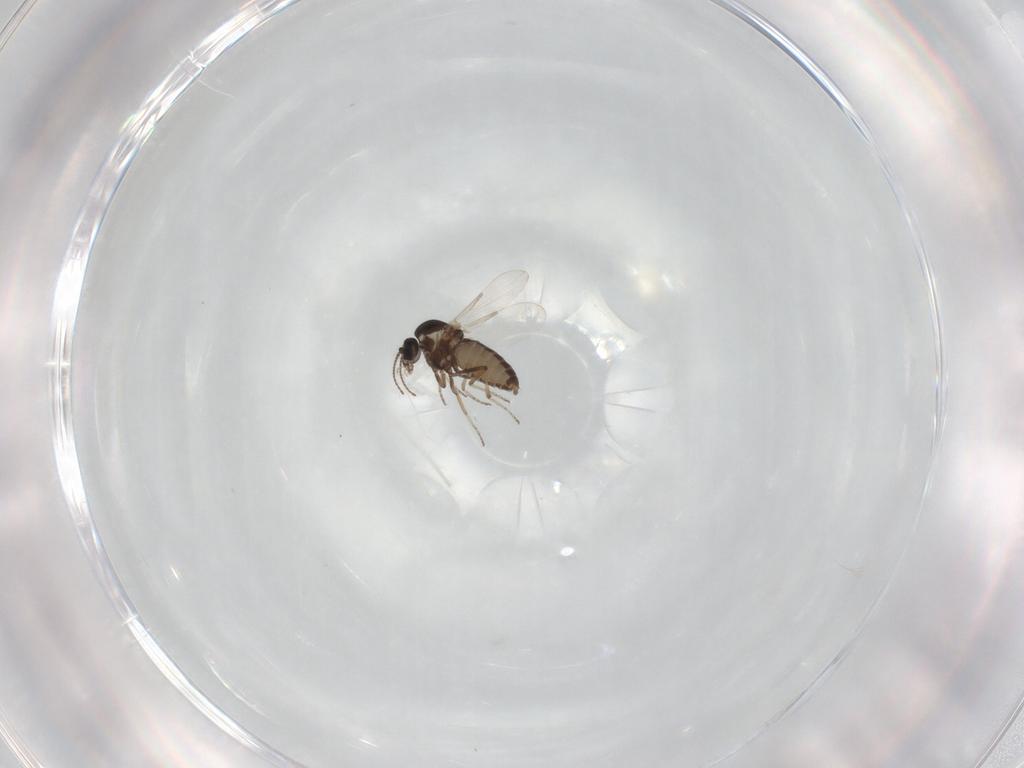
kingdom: Animalia
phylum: Arthropoda
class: Insecta
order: Diptera
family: Ceratopogonidae
